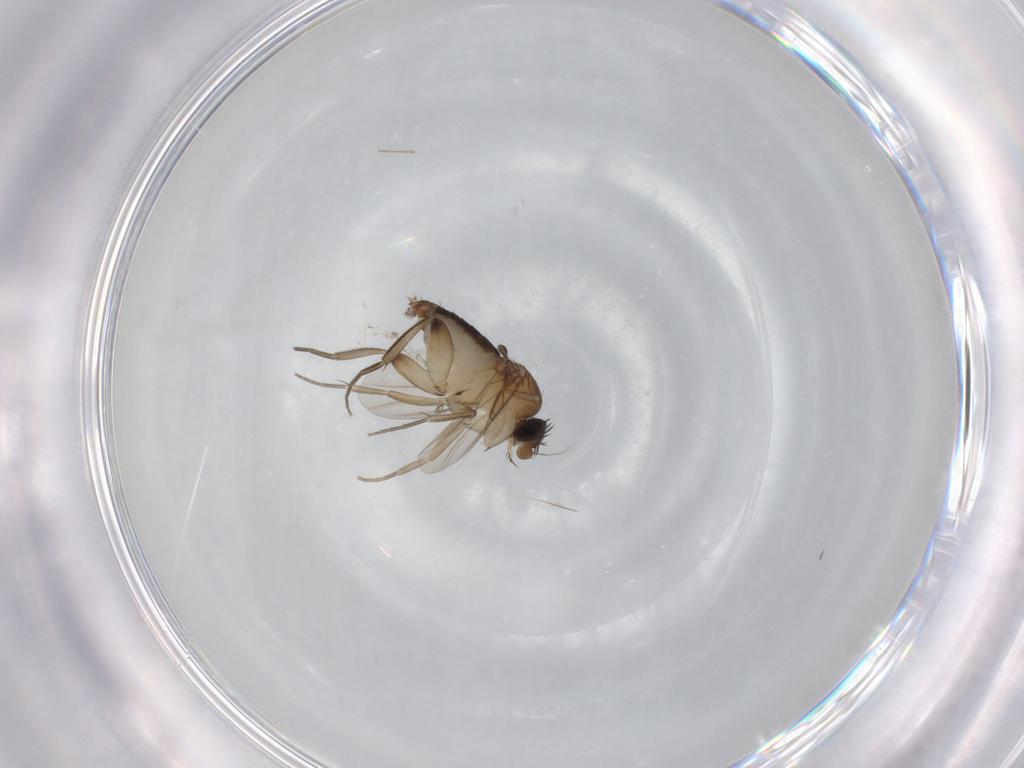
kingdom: Animalia
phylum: Arthropoda
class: Insecta
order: Diptera
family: Phoridae
